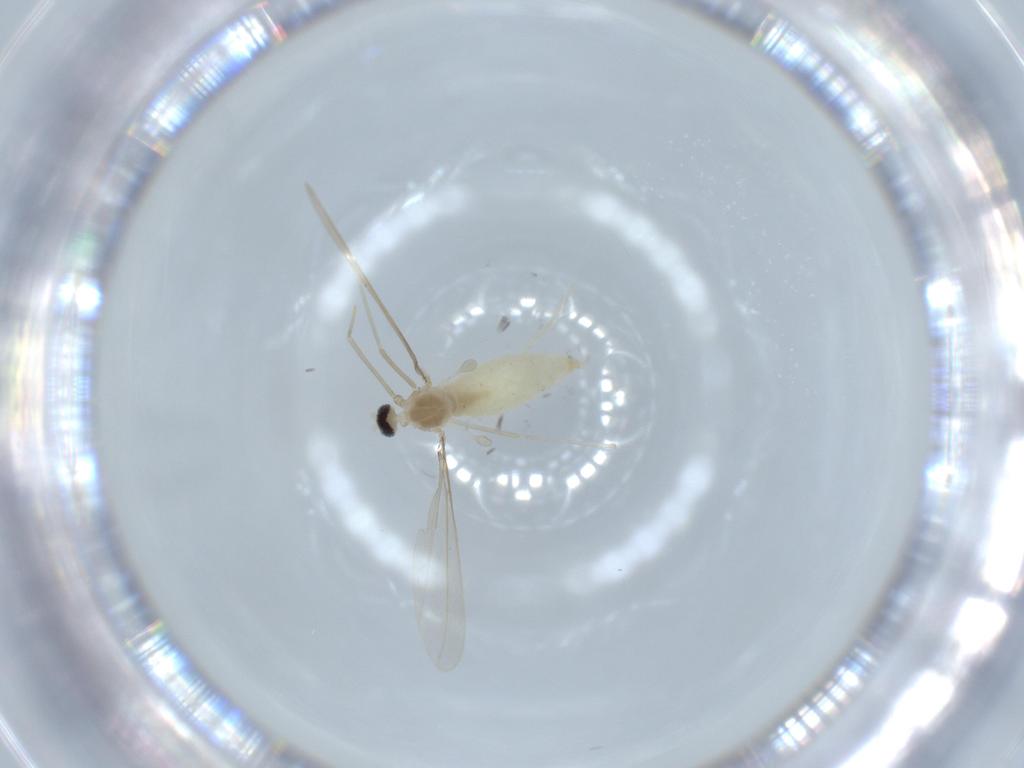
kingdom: Animalia
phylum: Arthropoda
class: Insecta
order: Diptera
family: Cecidomyiidae
